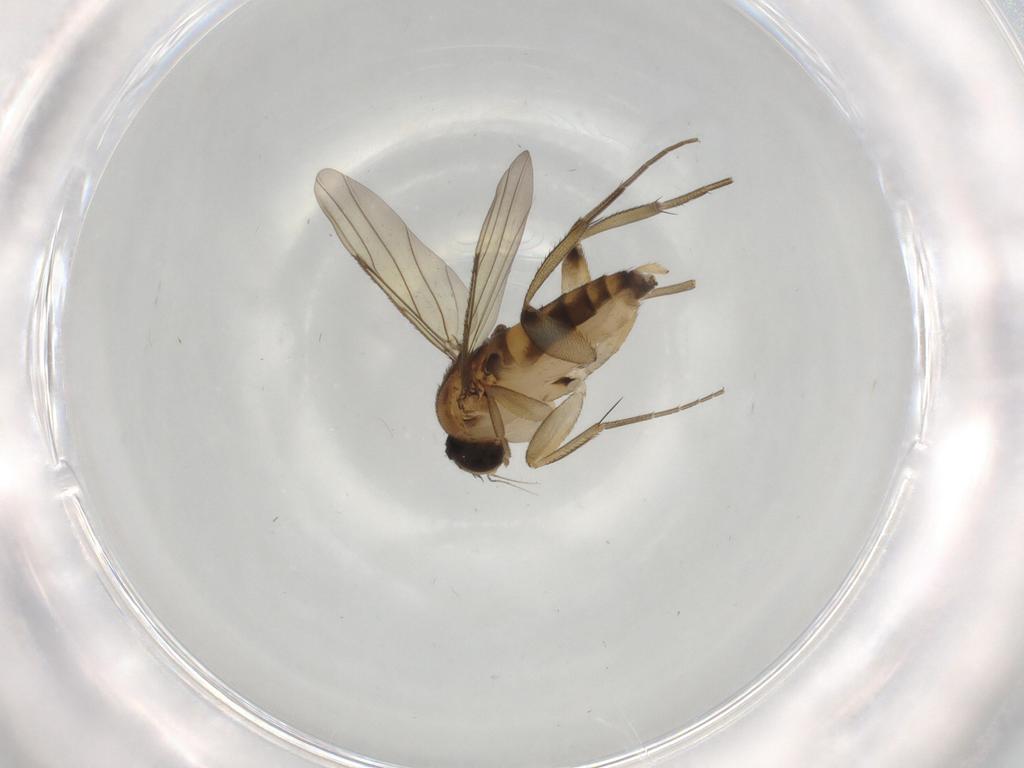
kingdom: Animalia
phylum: Arthropoda
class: Insecta
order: Diptera
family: Phoridae
